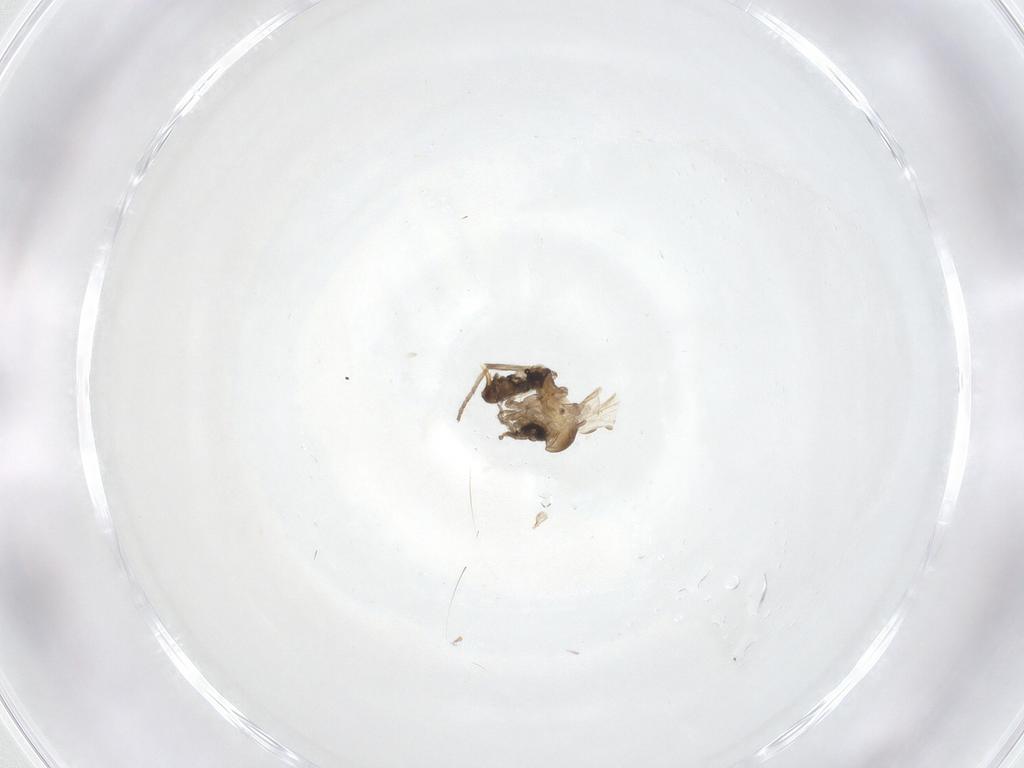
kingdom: Animalia
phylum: Arthropoda
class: Insecta
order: Diptera
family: Psychodidae
